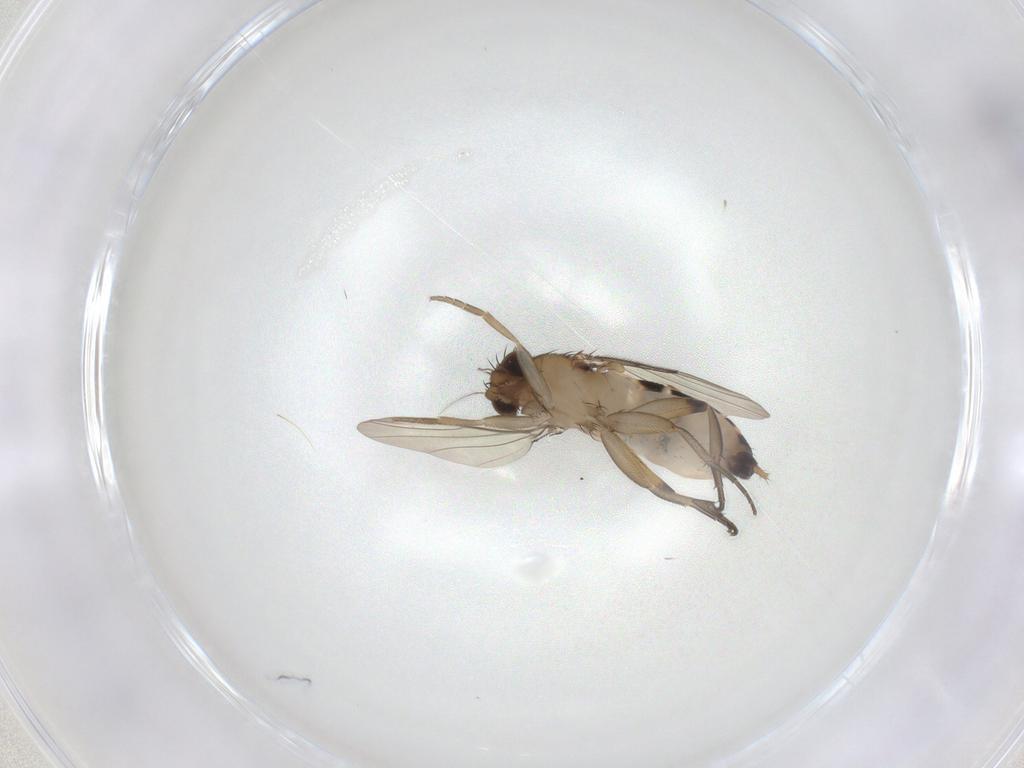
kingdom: Animalia
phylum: Arthropoda
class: Insecta
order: Diptera
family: Phoridae
